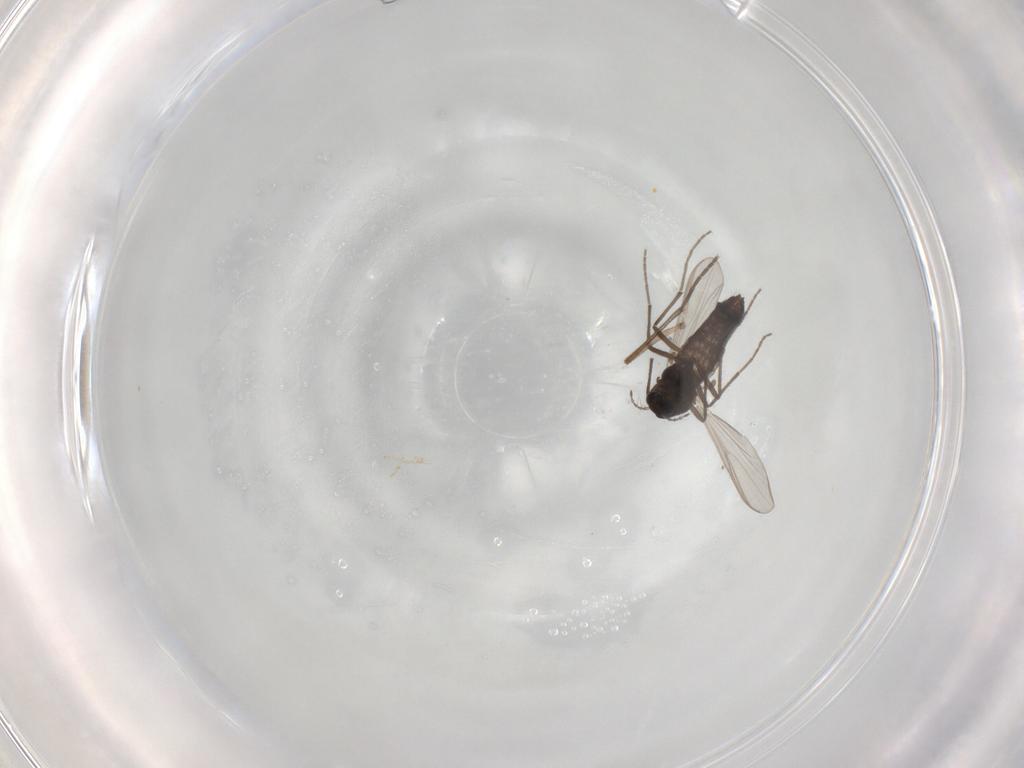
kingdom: Animalia
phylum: Arthropoda
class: Insecta
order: Diptera
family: Sciaridae
